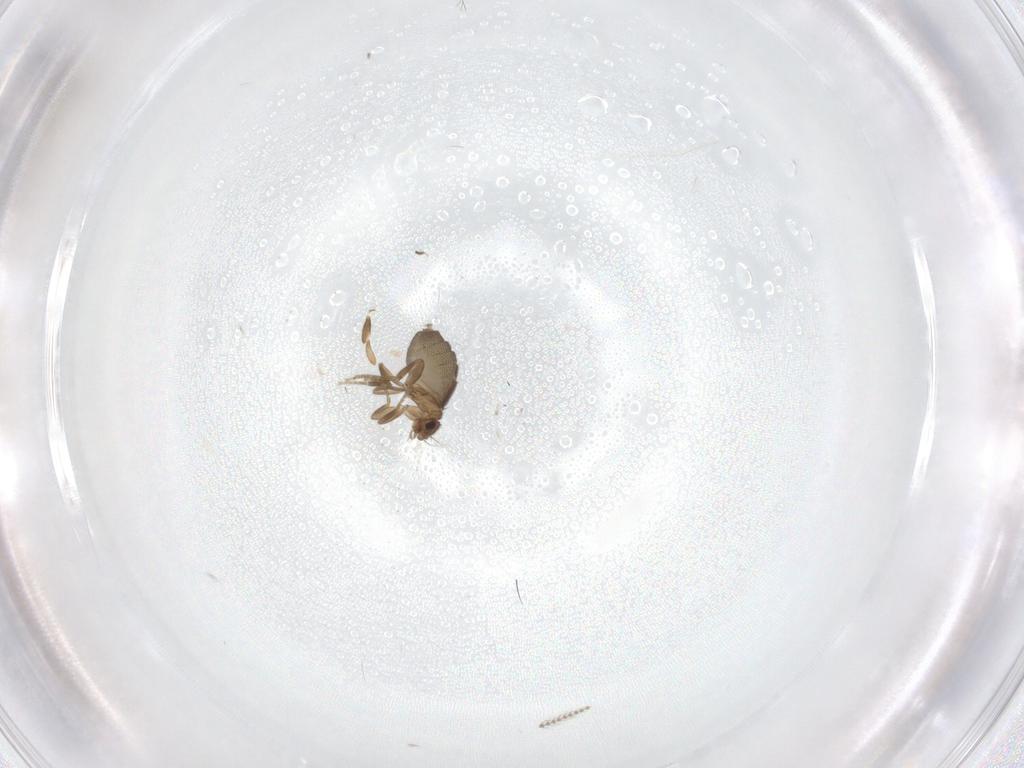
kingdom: Animalia
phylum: Arthropoda
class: Insecta
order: Diptera
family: Phoridae
